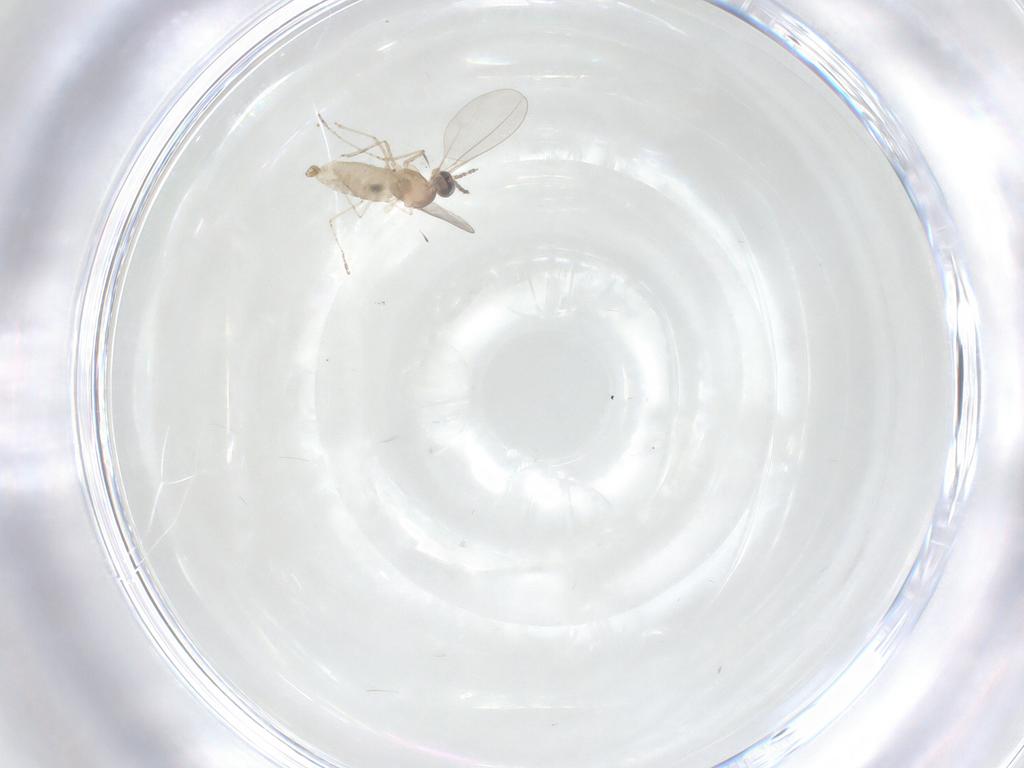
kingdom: Animalia
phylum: Arthropoda
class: Insecta
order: Diptera
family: Cecidomyiidae
